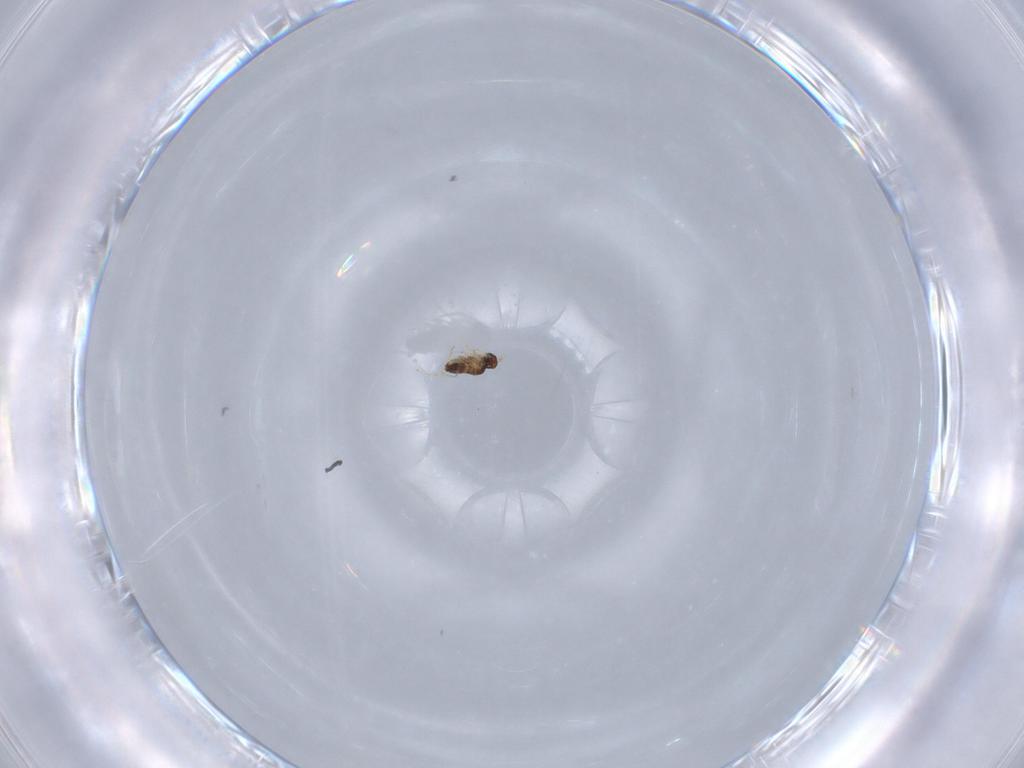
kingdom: Animalia
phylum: Arthropoda
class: Insecta
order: Hymenoptera
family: Ichneumonidae
